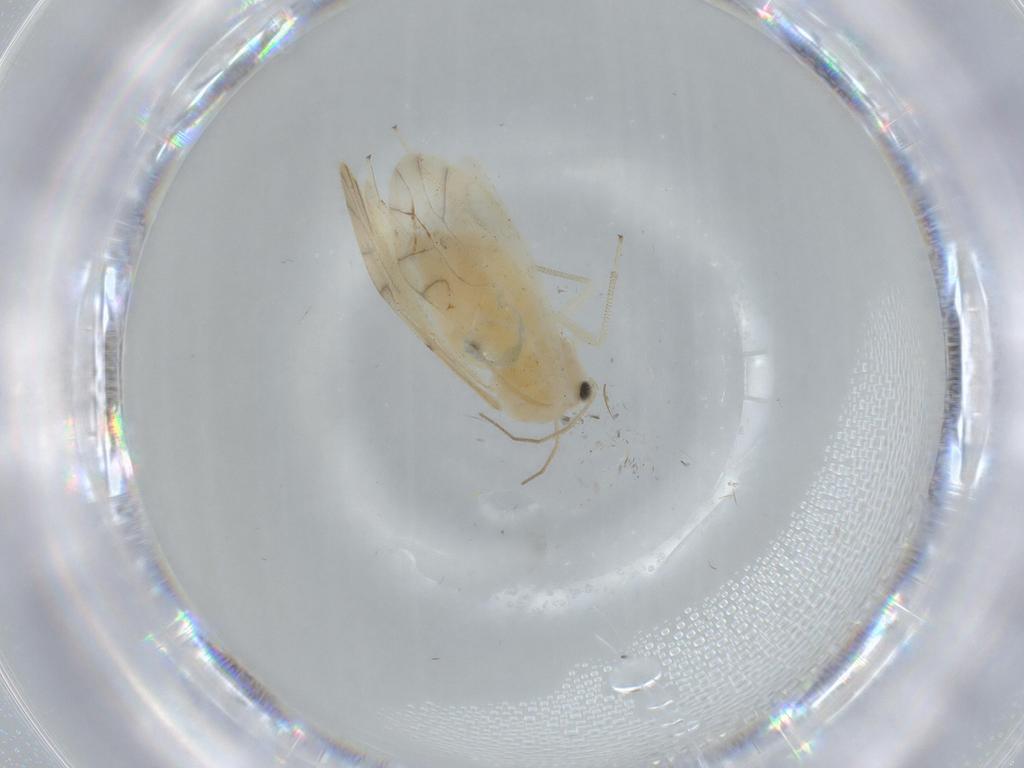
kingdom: Animalia
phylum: Arthropoda
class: Insecta
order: Psocodea
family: Caeciliusidae
